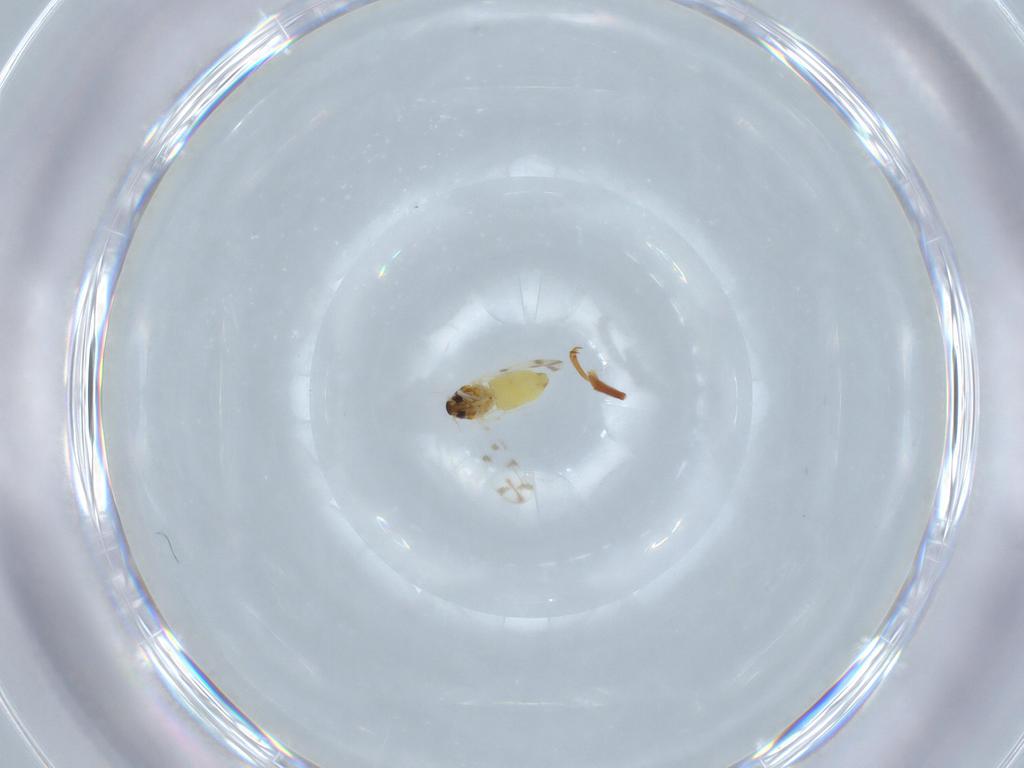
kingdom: Animalia
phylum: Arthropoda
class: Insecta
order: Hemiptera
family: Aleyrodidae
